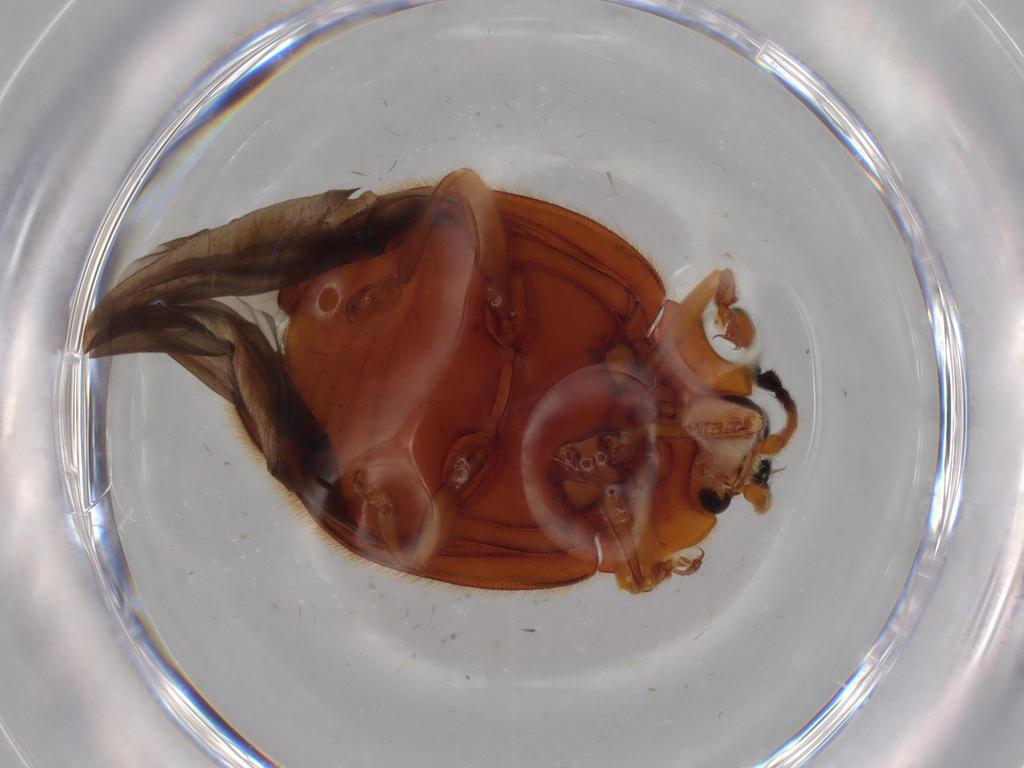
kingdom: Animalia
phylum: Arthropoda
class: Insecta
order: Coleoptera
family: Endomychidae
